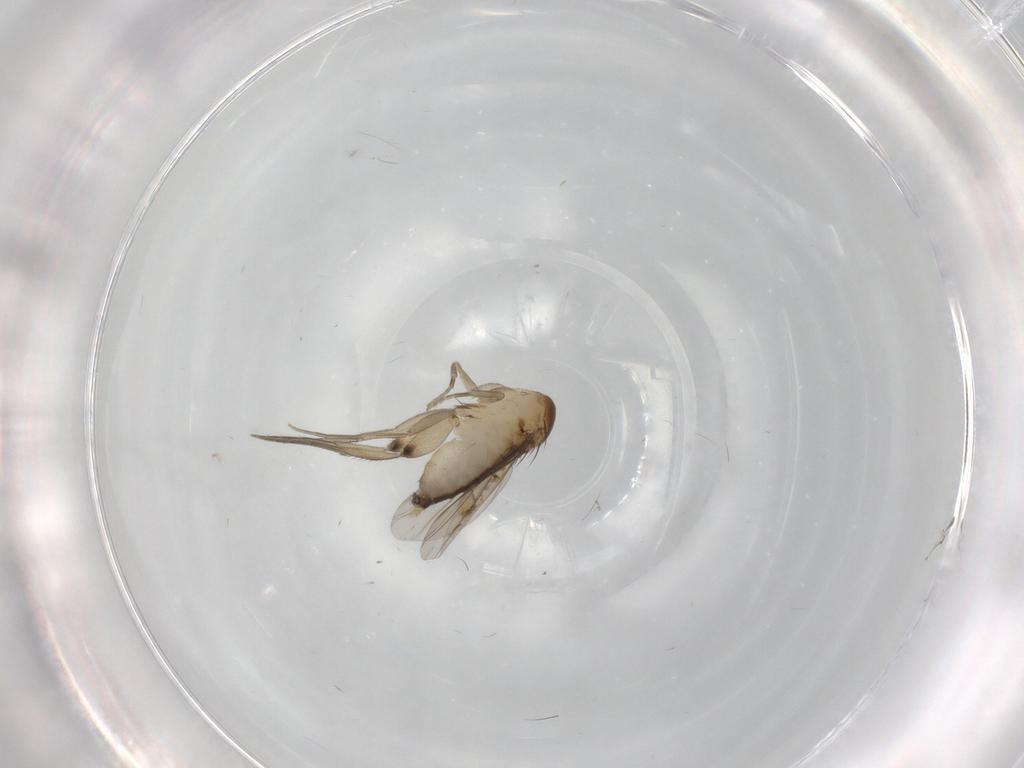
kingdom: Animalia
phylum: Arthropoda
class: Insecta
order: Diptera
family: Phoridae
